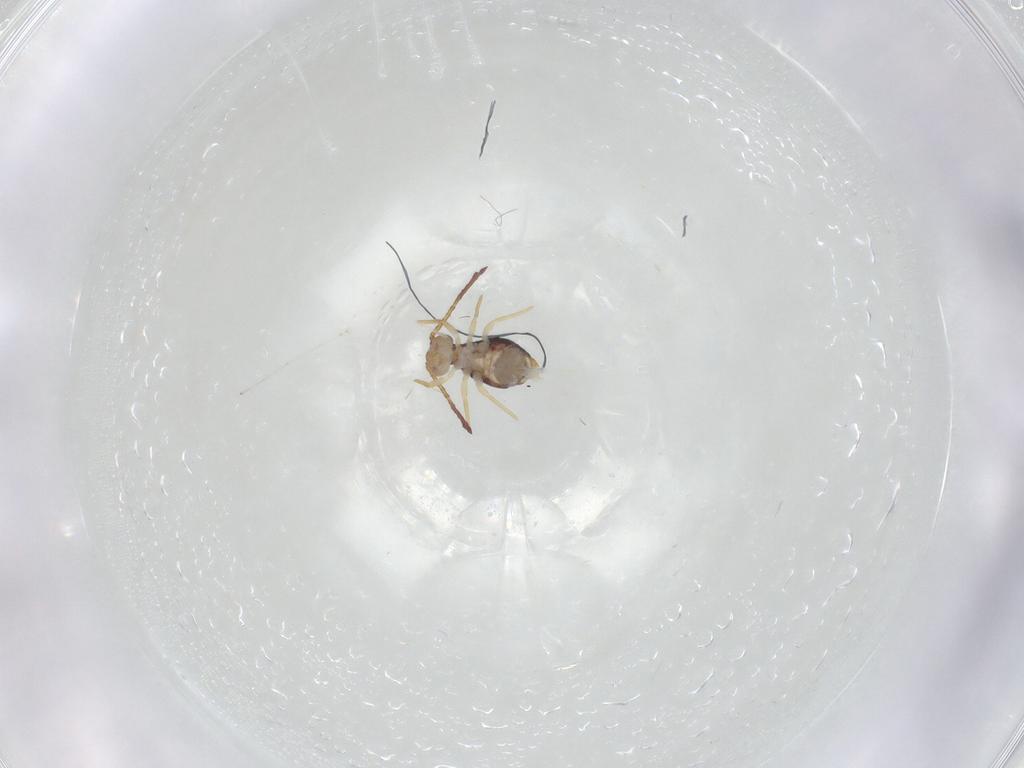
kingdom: Animalia
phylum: Arthropoda
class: Insecta
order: Diptera
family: Cecidomyiidae
